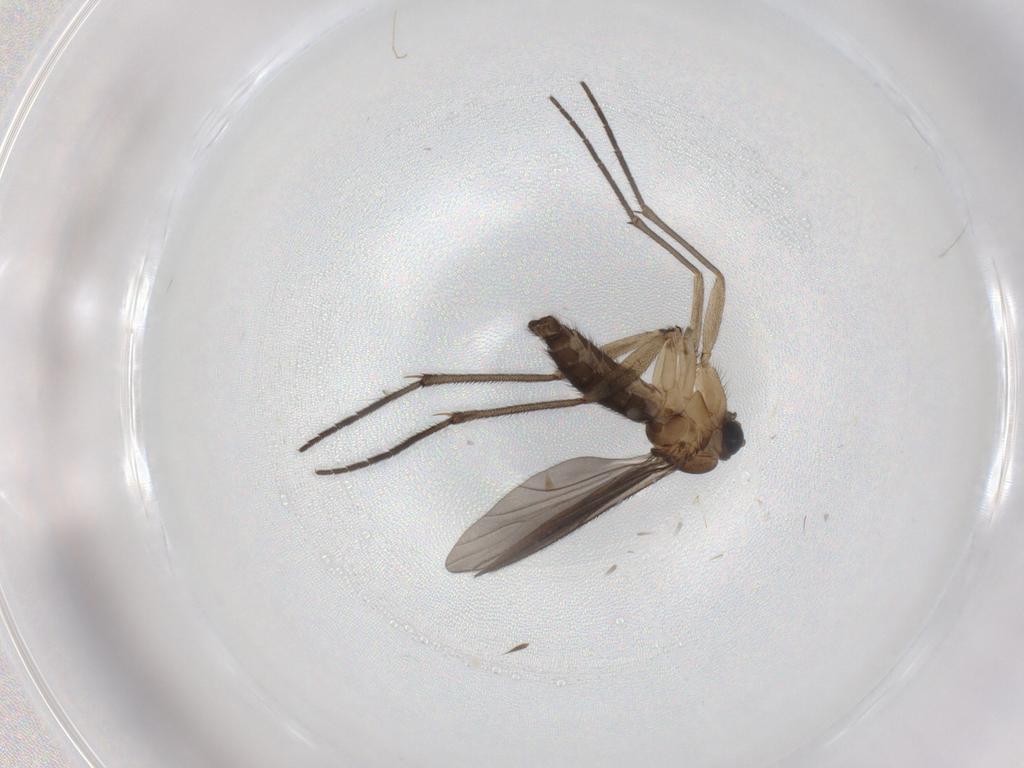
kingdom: Animalia
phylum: Arthropoda
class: Insecta
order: Diptera
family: Sciaridae
